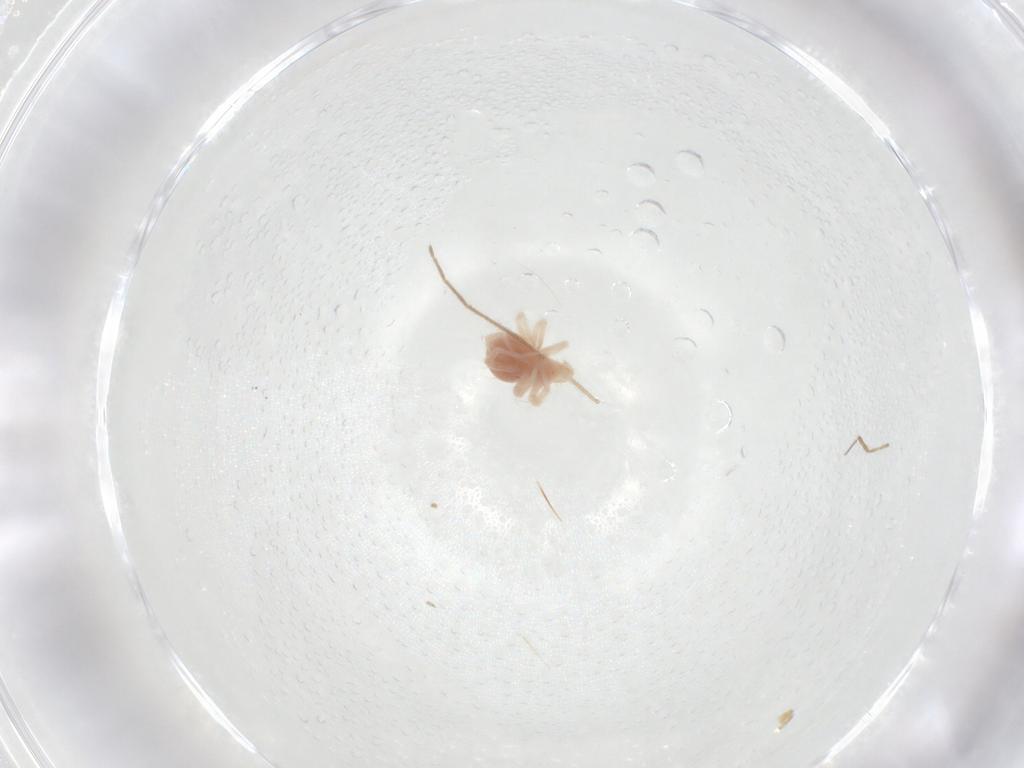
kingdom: Animalia
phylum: Arthropoda
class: Arachnida
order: Trombidiformes
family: Anystidae
